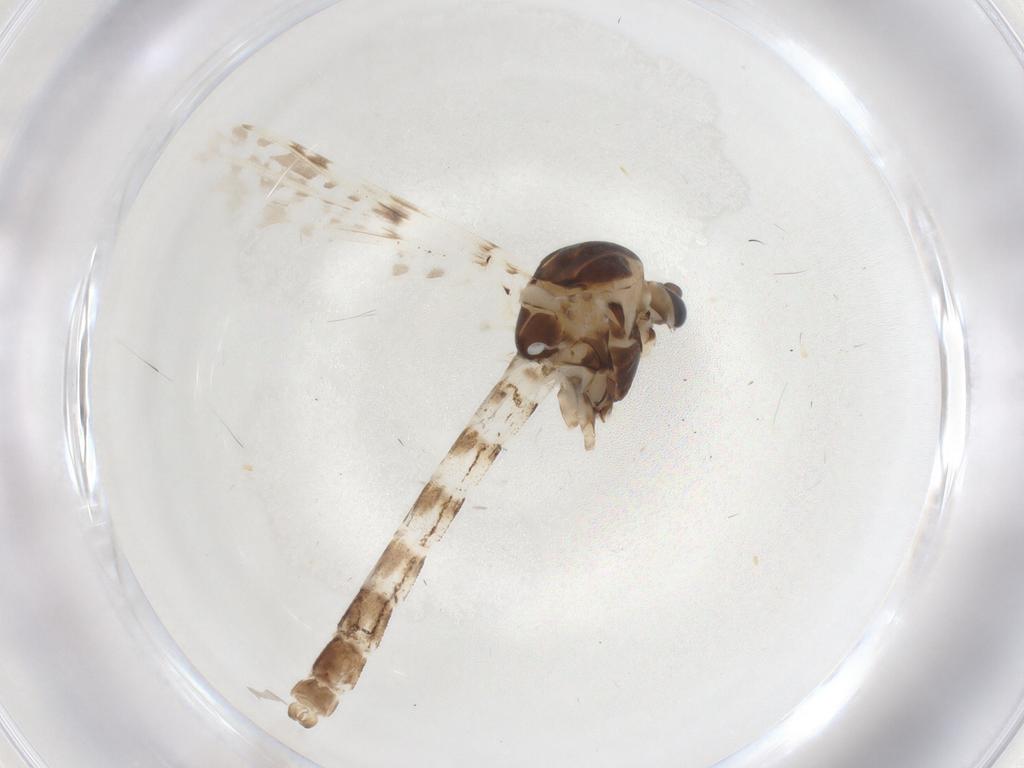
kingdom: Animalia
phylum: Arthropoda
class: Insecta
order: Diptera
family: Chironomidae
